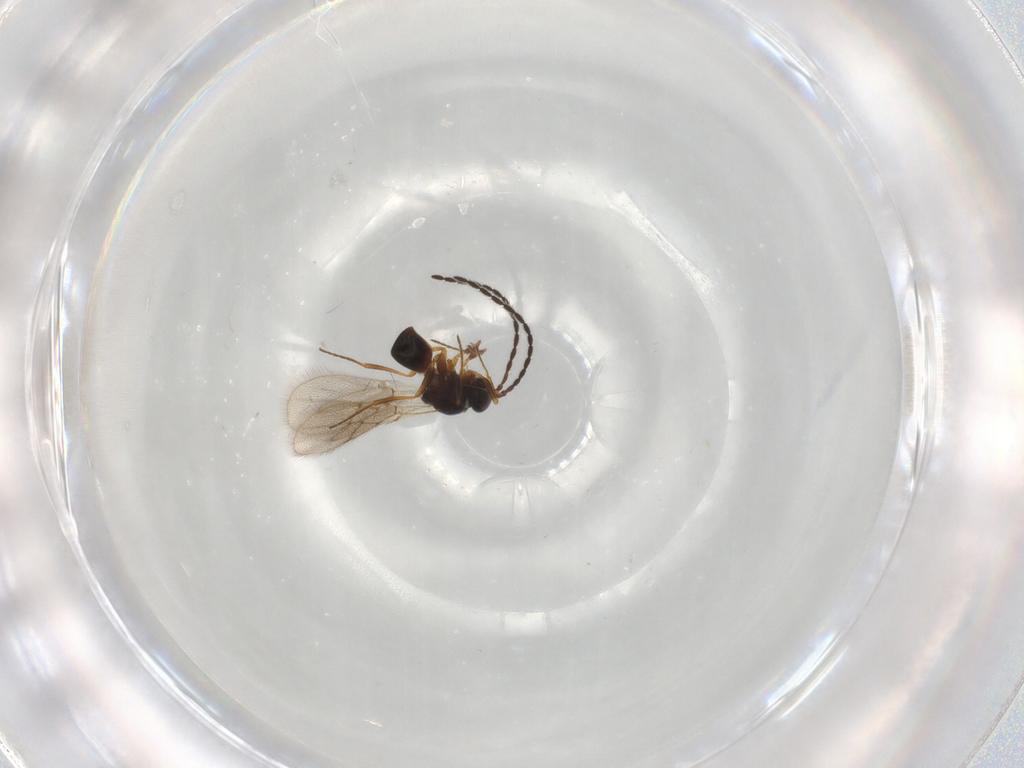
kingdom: Animalia
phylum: Arthropoda
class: Insecta
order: Hymenoptera
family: Figitidae
